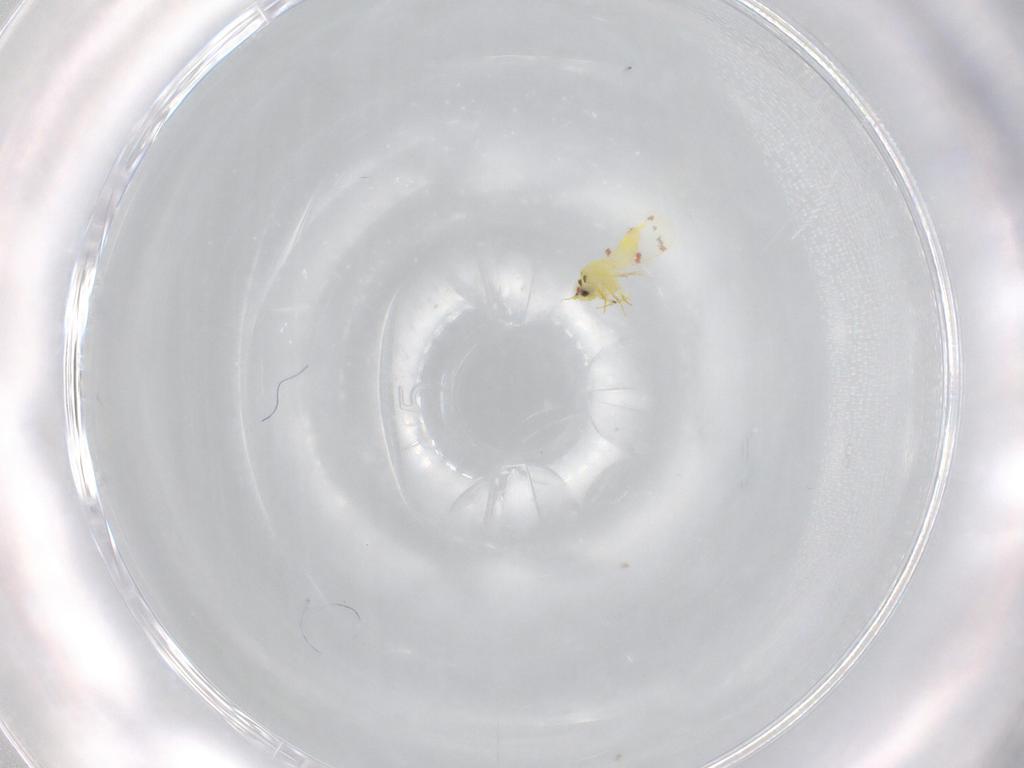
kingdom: Animalia
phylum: Arthropoda
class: Insecta
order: Hemiptera
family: Aleyrodidae
